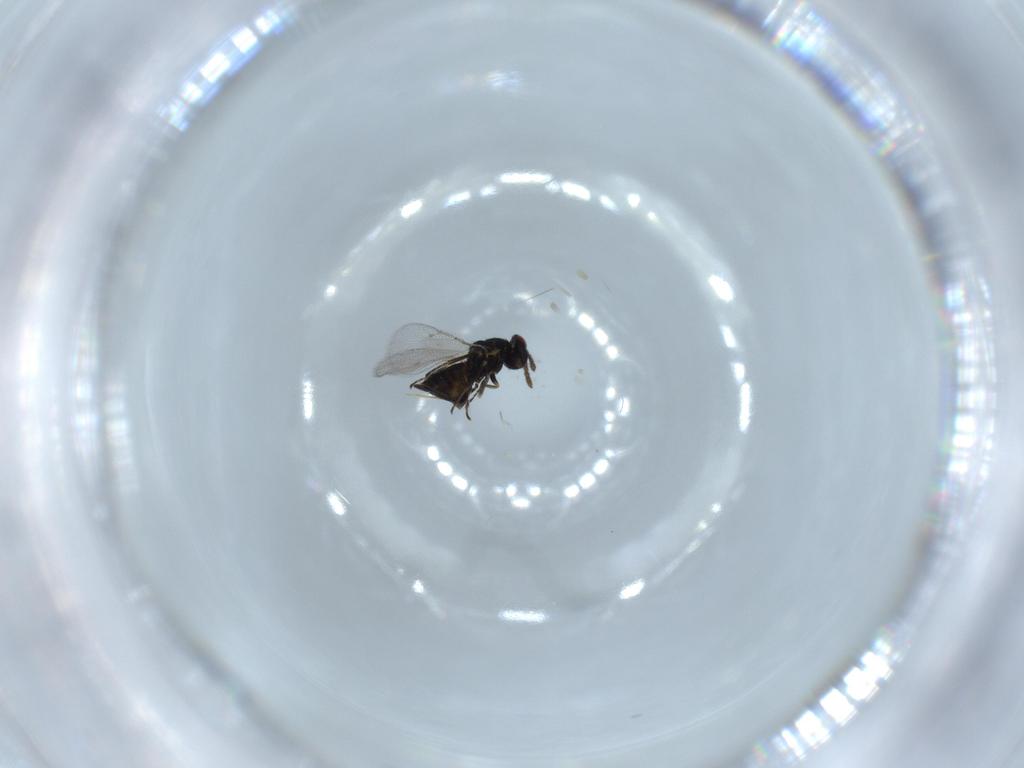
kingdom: Animalia
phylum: Arthropoda
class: Insecta
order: Hymenoptera
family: Eulophidae
